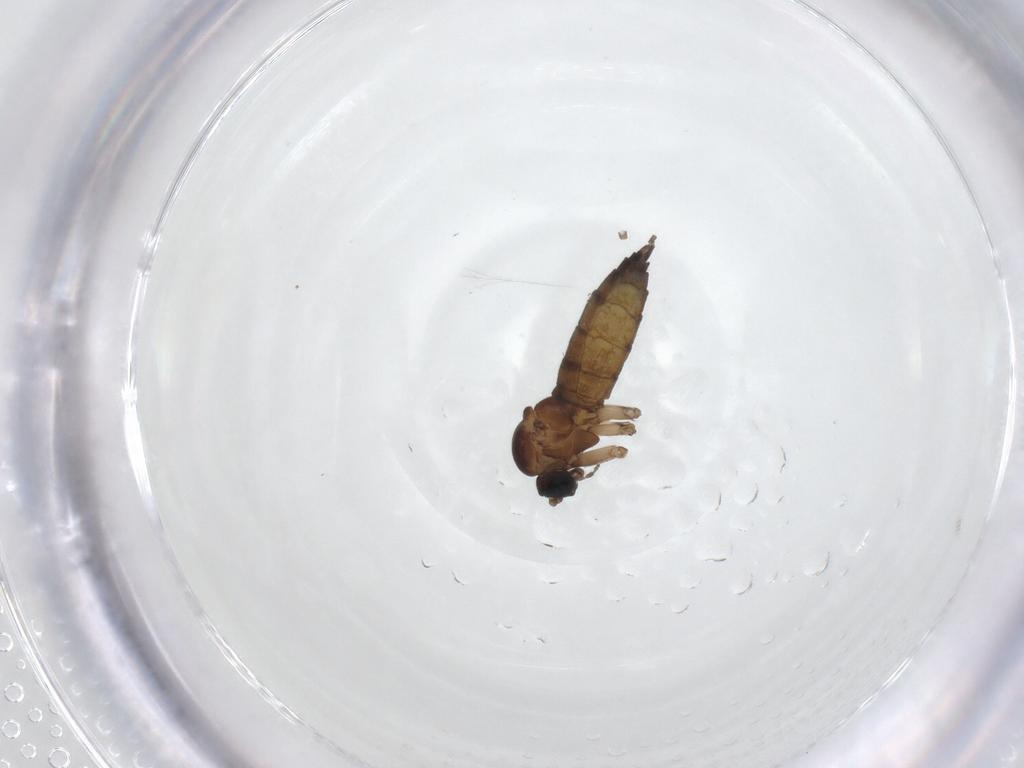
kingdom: Animalia
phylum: Arthropoda
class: Insecta
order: Diptera
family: Sciaridae
